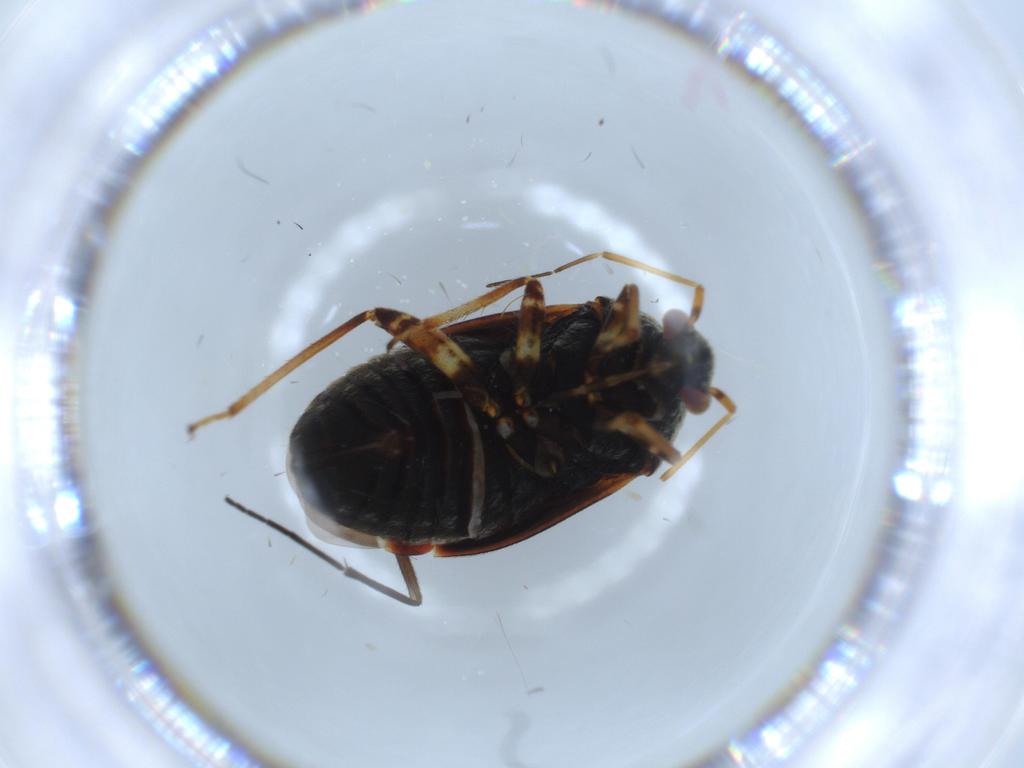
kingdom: Animalia
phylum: Arthropoda
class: Insecta
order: Hemiptera
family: Miridae
